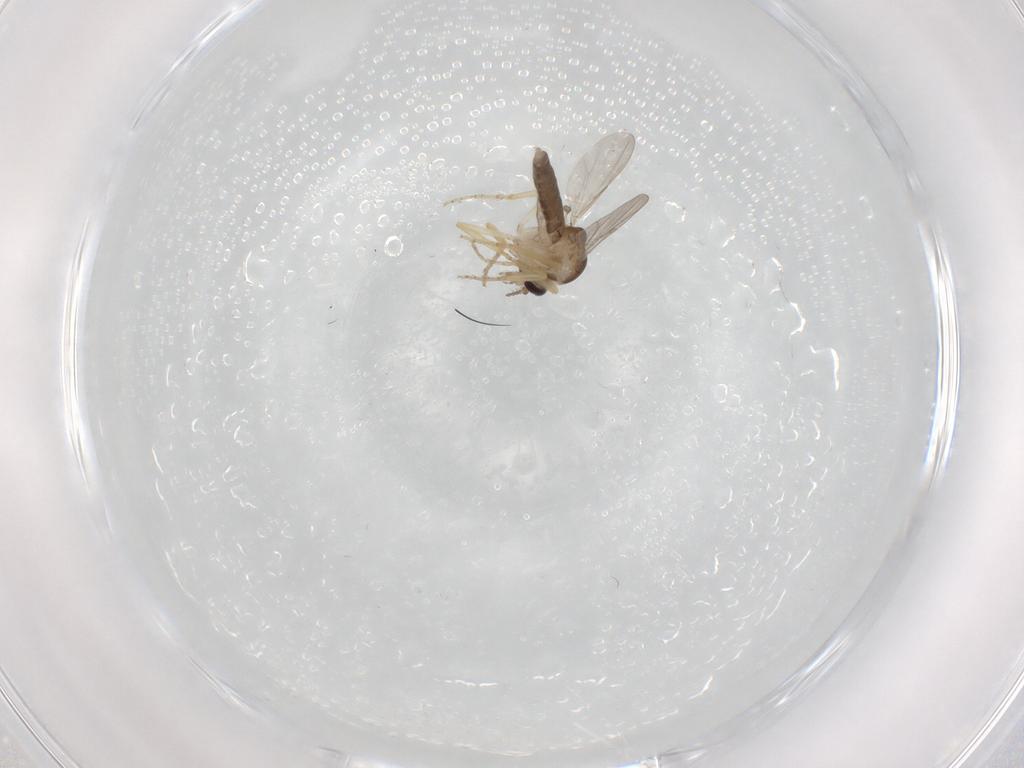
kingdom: Animalia
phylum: Arthropoda
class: Insecta
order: Diptera
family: Ceratopogonidae
